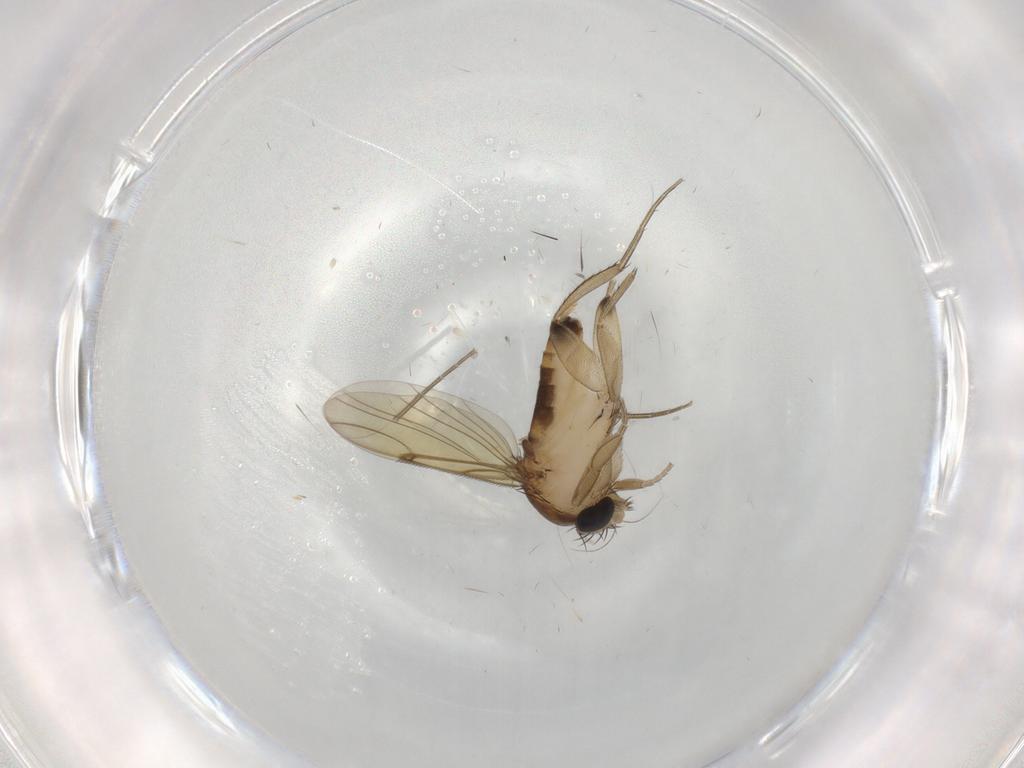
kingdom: Animalia
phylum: Arthropoda
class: Insecta
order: Diptera
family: Phoridae
